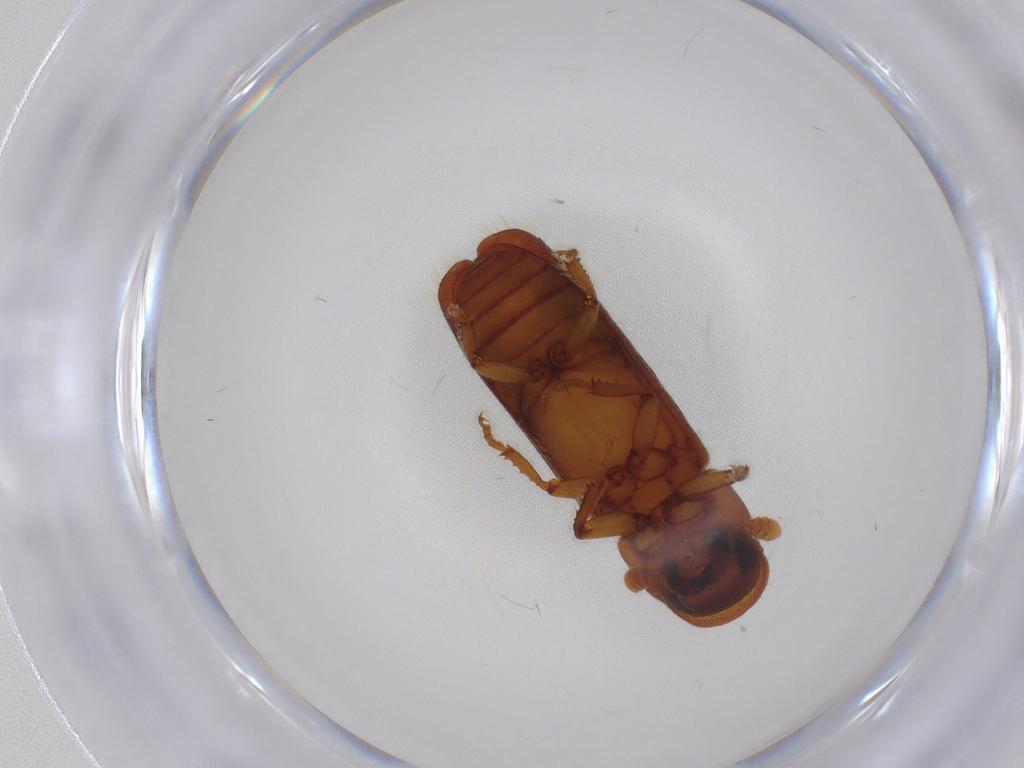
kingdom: Animalia
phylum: Arthropoda
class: Insecta
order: Coleoptera
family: Curculionidae
